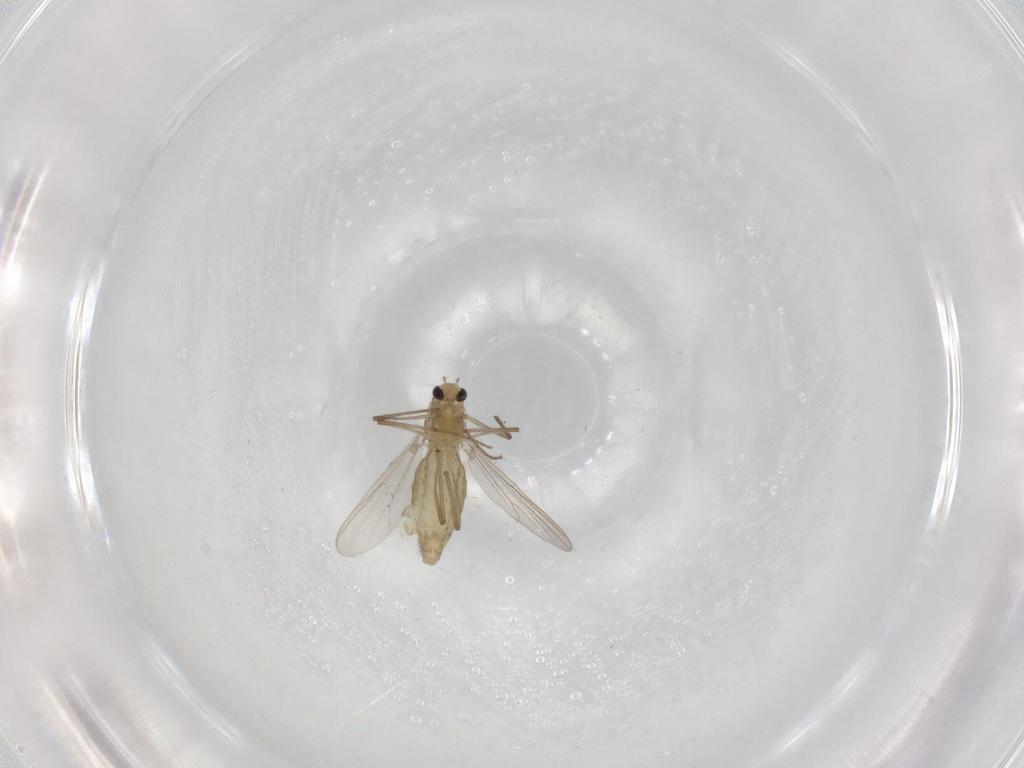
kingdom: Animalia
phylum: Arthropoda
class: Insecta
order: Diptera
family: Chironomidae
